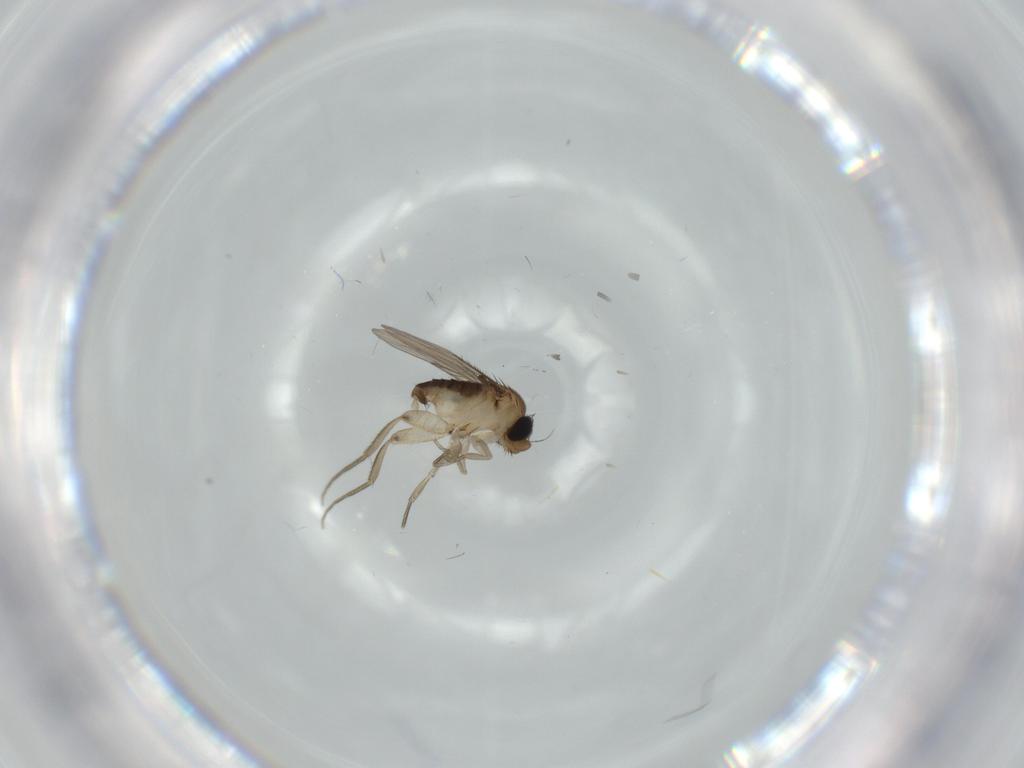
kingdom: Animalia
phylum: Arthropoda
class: Insecta
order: Diptera
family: Phoridae
